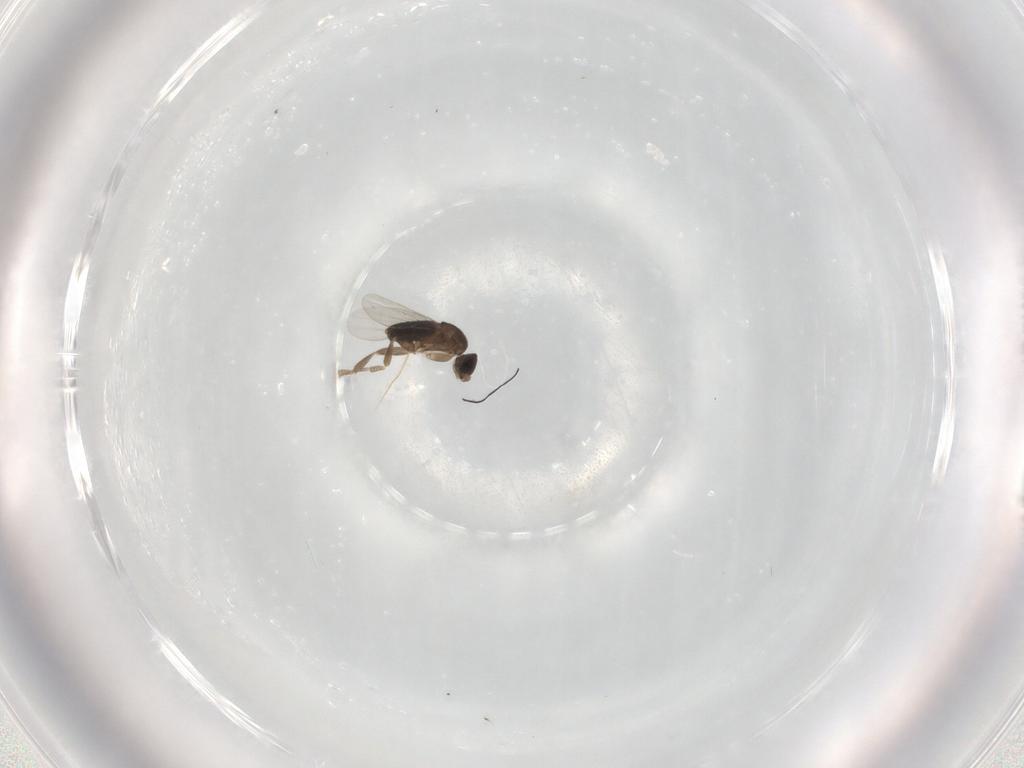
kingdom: Animalia
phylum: Arthropoda
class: Insecta
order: Diptera
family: Phoridae
